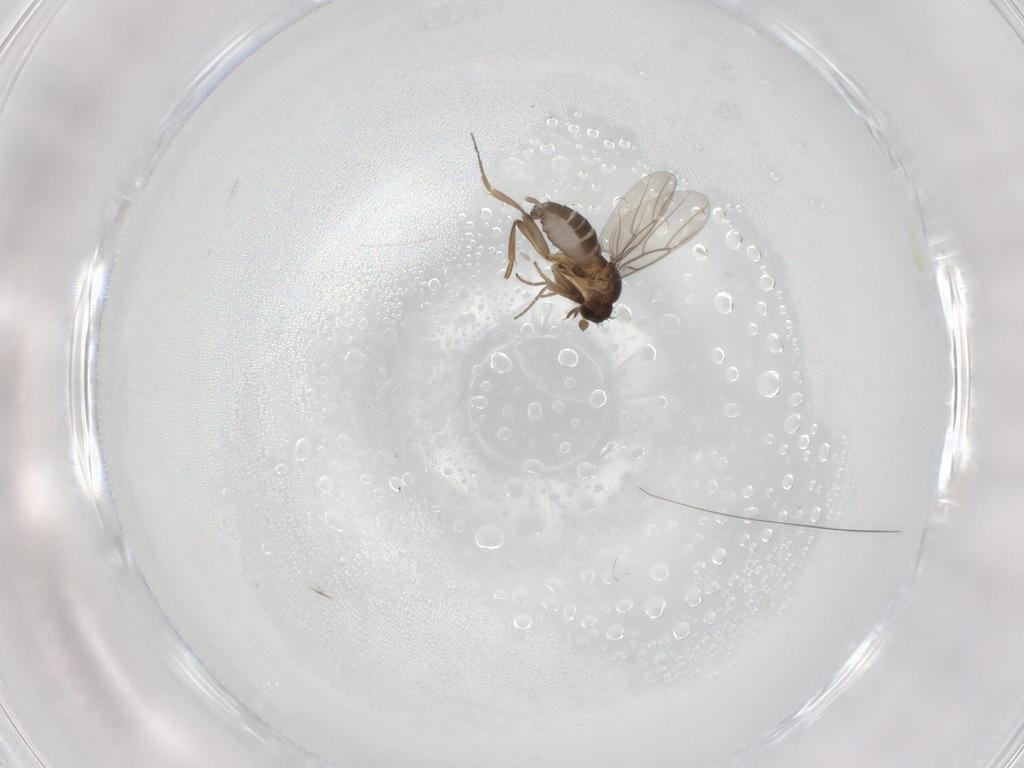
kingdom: Animalia
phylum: Arthropoda
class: Insecta
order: Diptera
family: Phoridae
